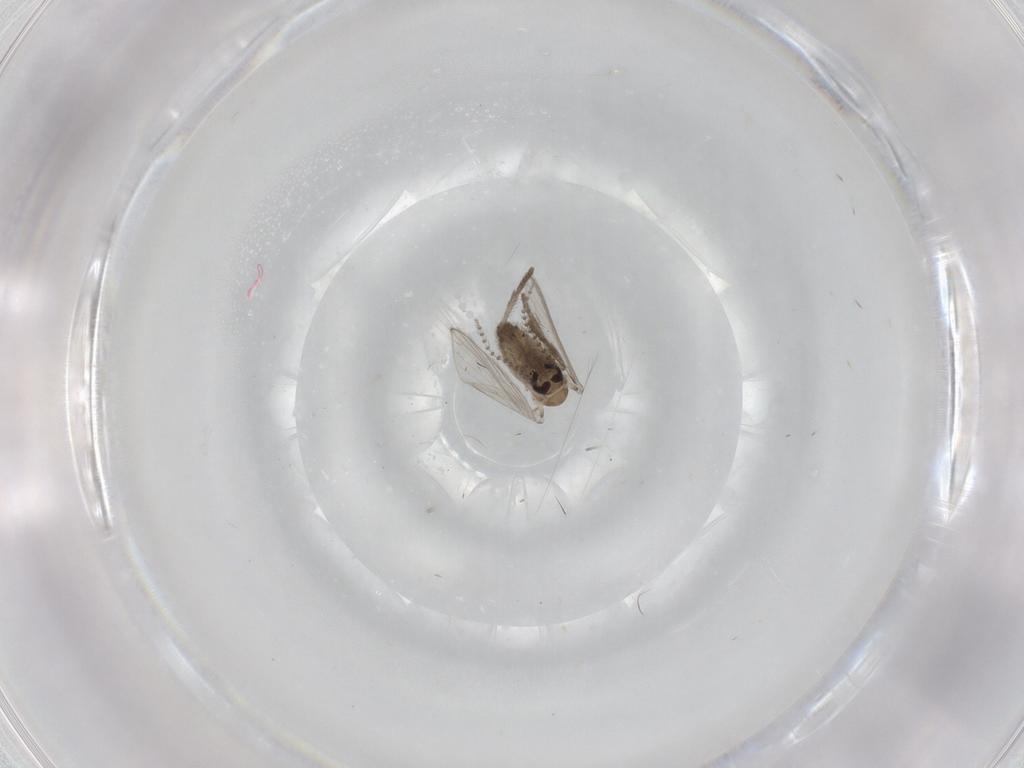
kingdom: Animalia
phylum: Arthropoda
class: Insecta
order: Diptera
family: Psychodidae
